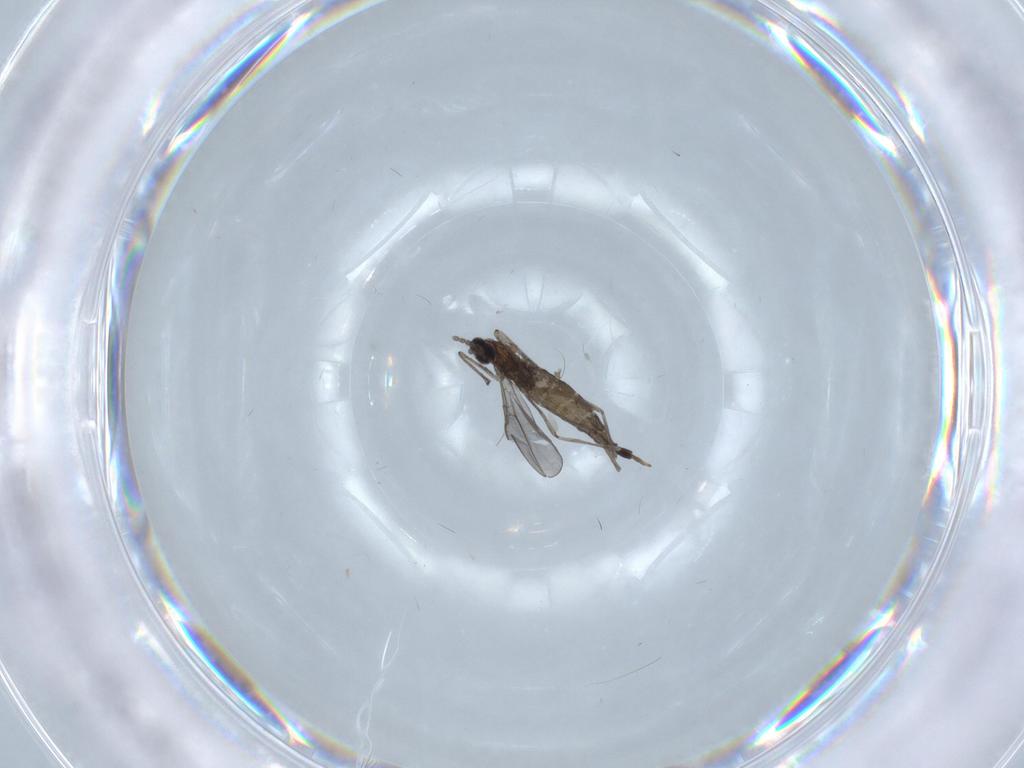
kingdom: Animalia
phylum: Arthropoda
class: Insecta
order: Diptera
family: Cecidomyiidae
